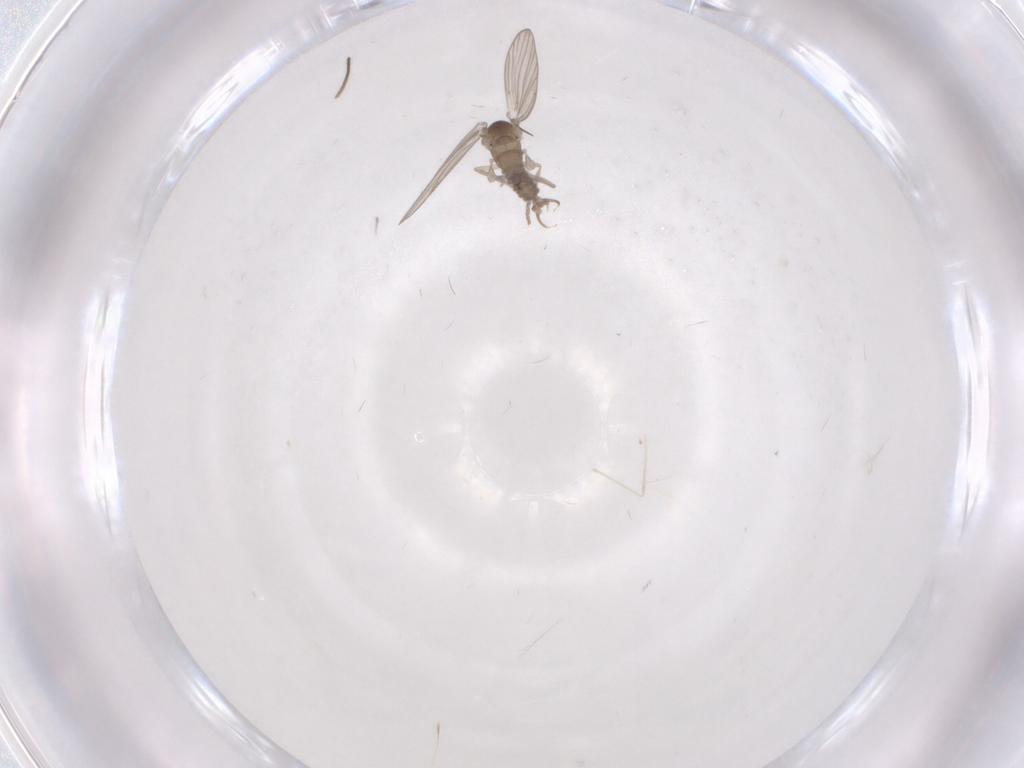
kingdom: Animalia
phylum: Arthropoda
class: Insecta
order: Diptera
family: Psychodidae
